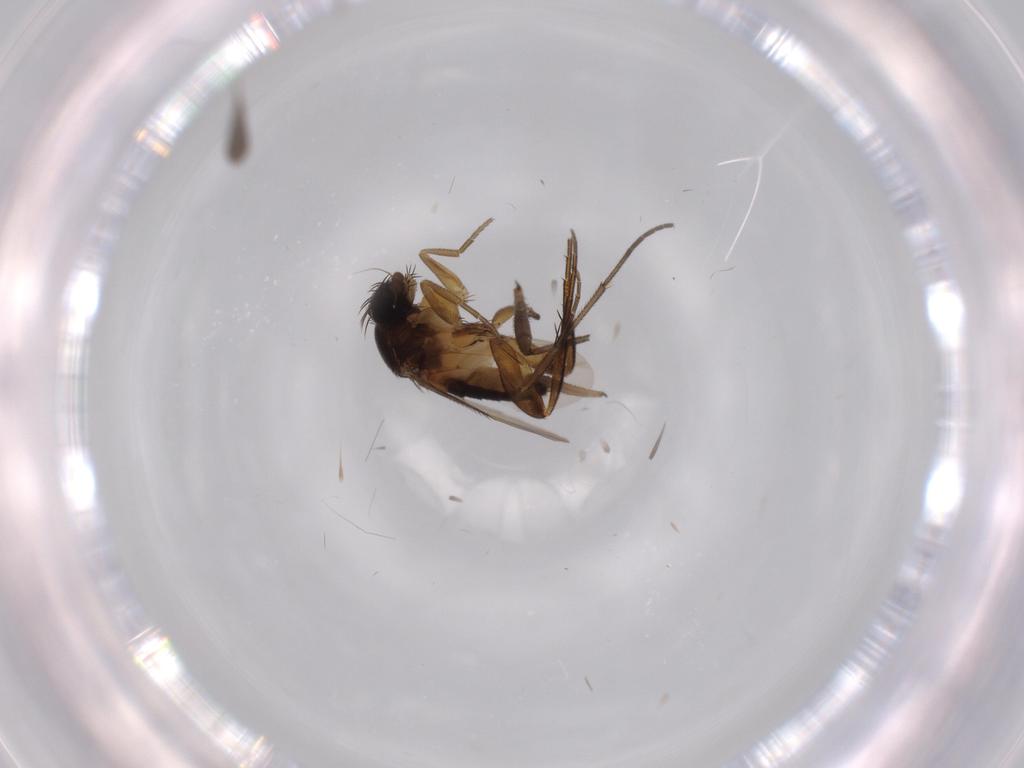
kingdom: Animalia
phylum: Arthropoda
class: Insecta
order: Diptera
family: Phoridae
